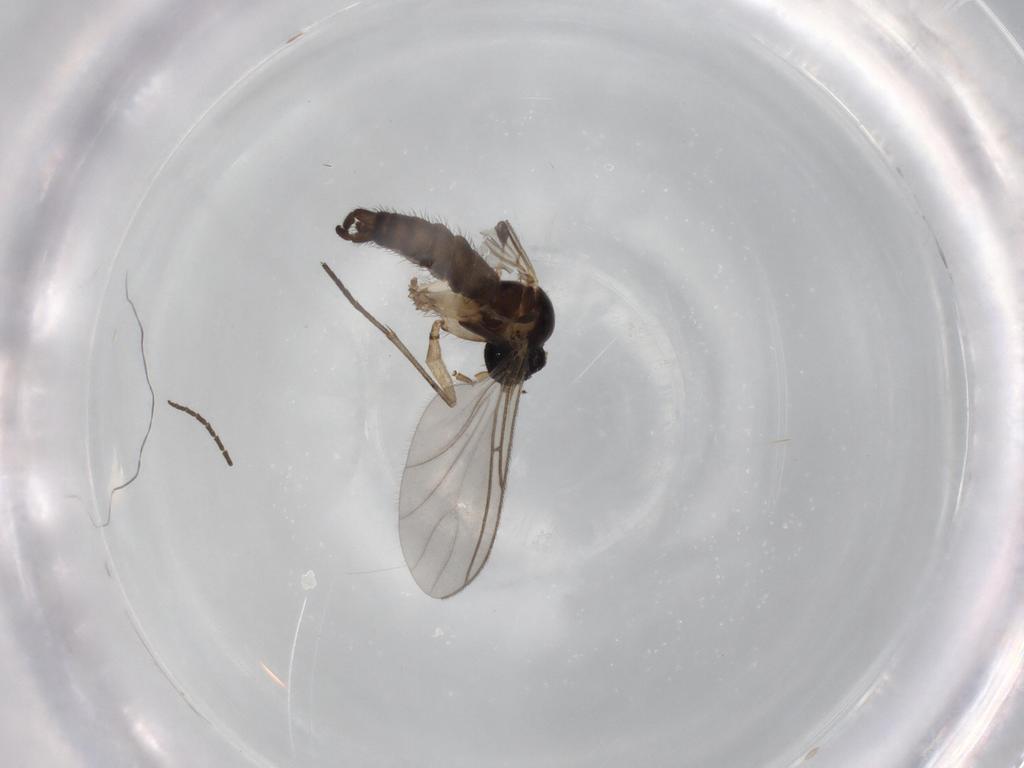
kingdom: Animalia
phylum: Arthropoda
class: Insecta
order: Diptera
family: Sciaridae
